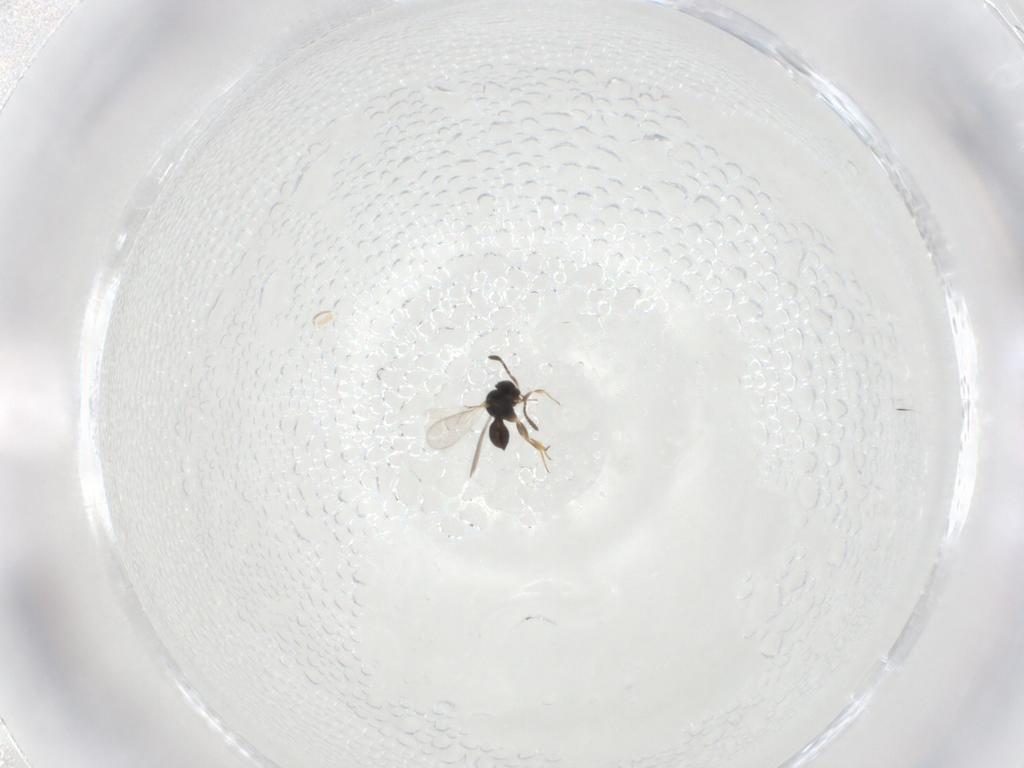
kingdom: Animalia
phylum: Arthropoda
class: Insecta
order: Hymenoptera
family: Scelionidae
